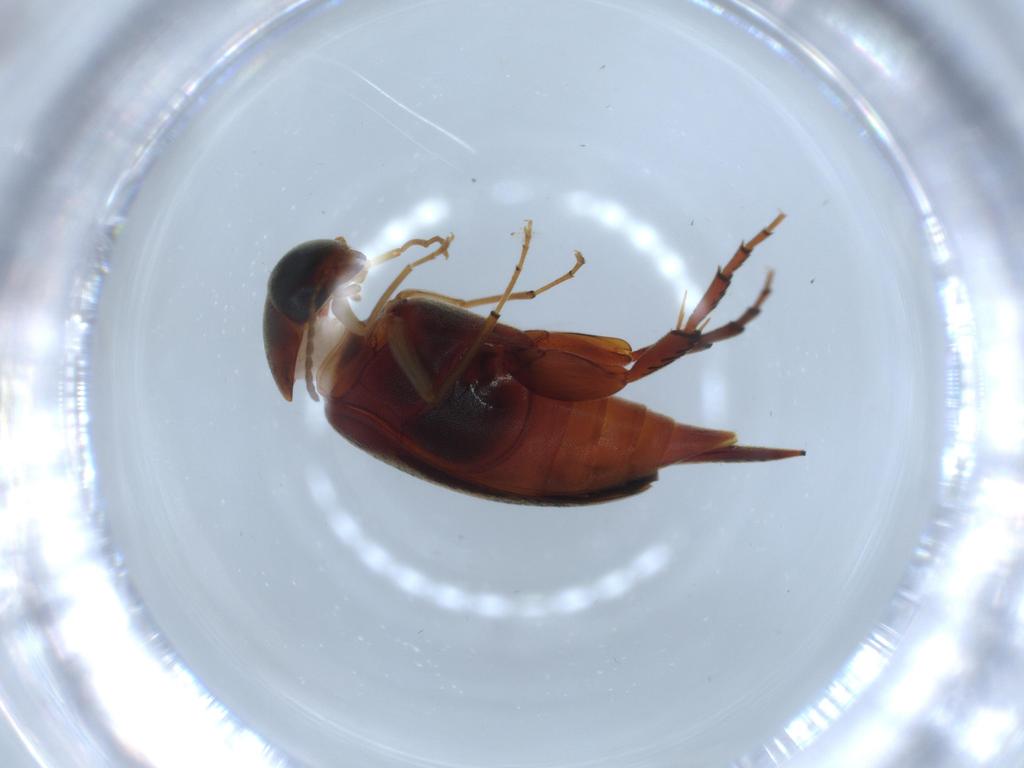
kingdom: Animalia
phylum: Arthropoda
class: Insecta
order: Coleoptera
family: Mordellidae
